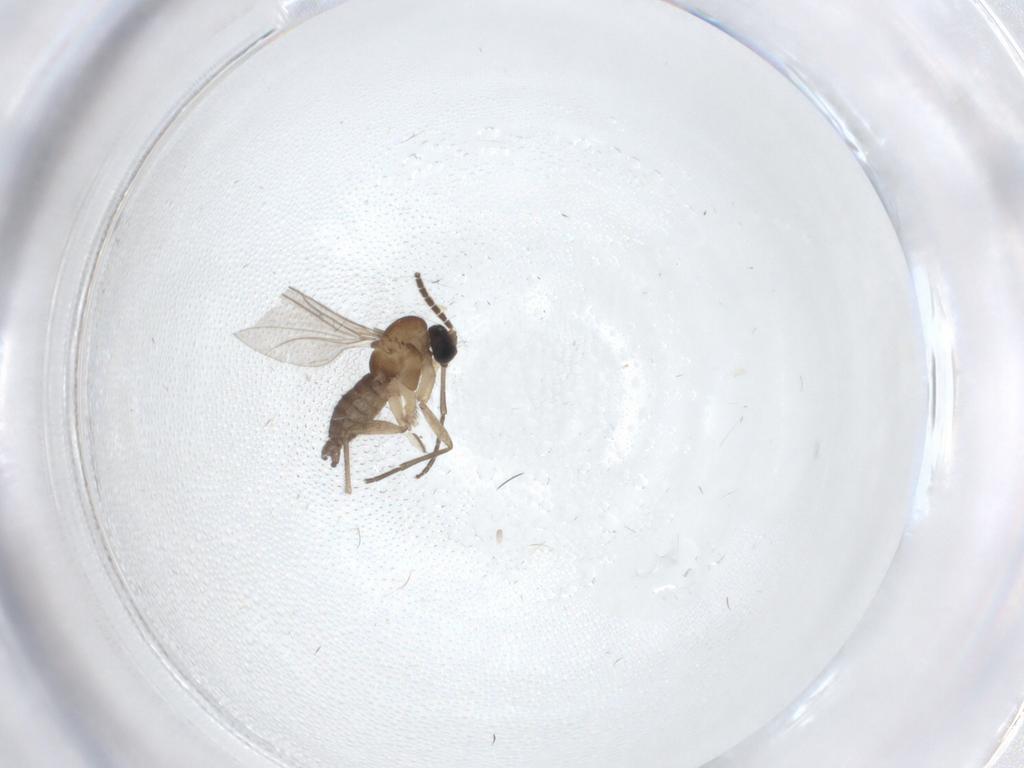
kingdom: Animalia
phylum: Arthropoda
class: Insecta
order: Diptera
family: Sciaridae
